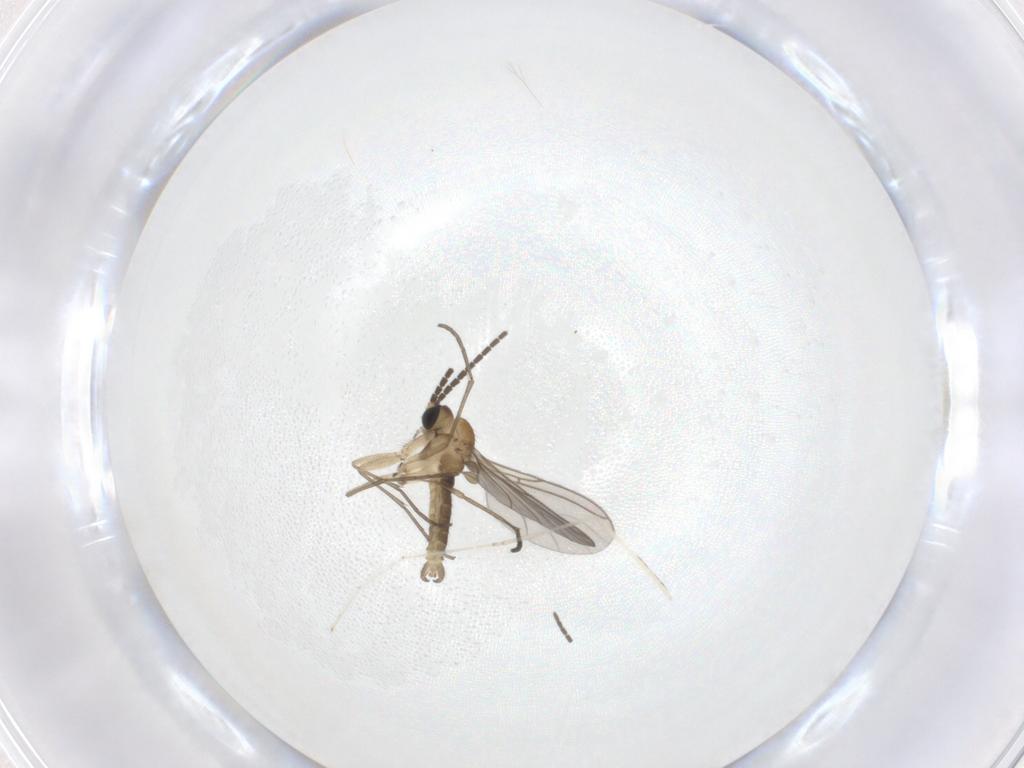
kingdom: Animalia
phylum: Arthropoda
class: Insecta
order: Diptera
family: Sciaridae
